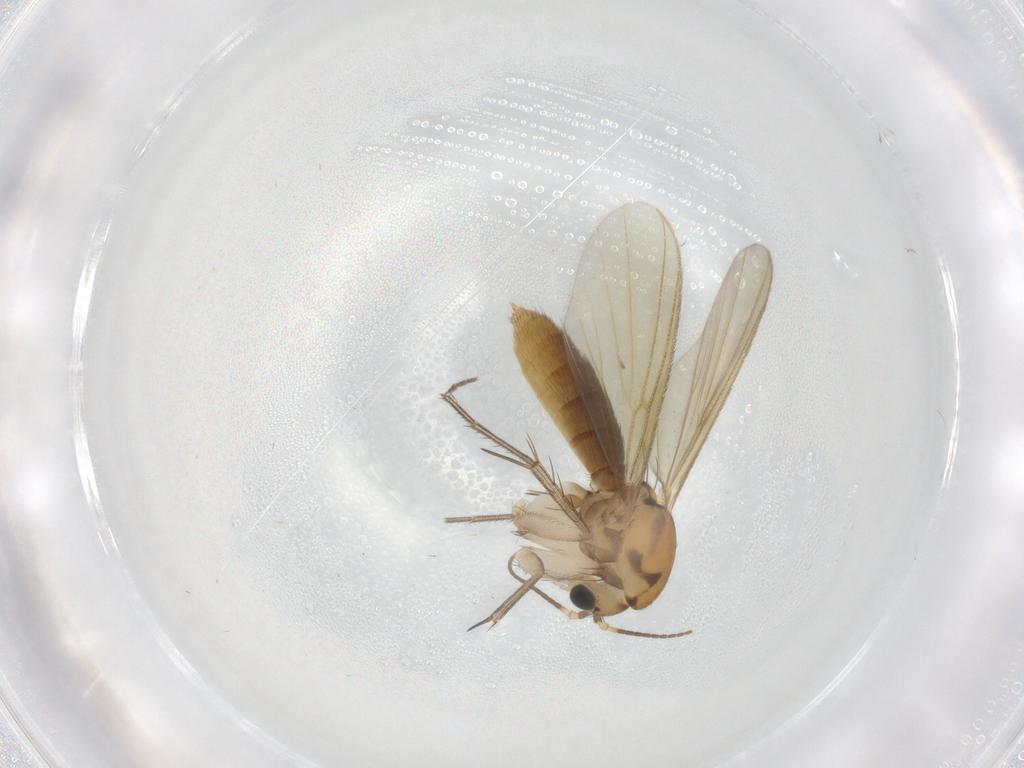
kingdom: Animalia
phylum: Arthropoda
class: Insecta
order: Diptera
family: Mycetophilidae
